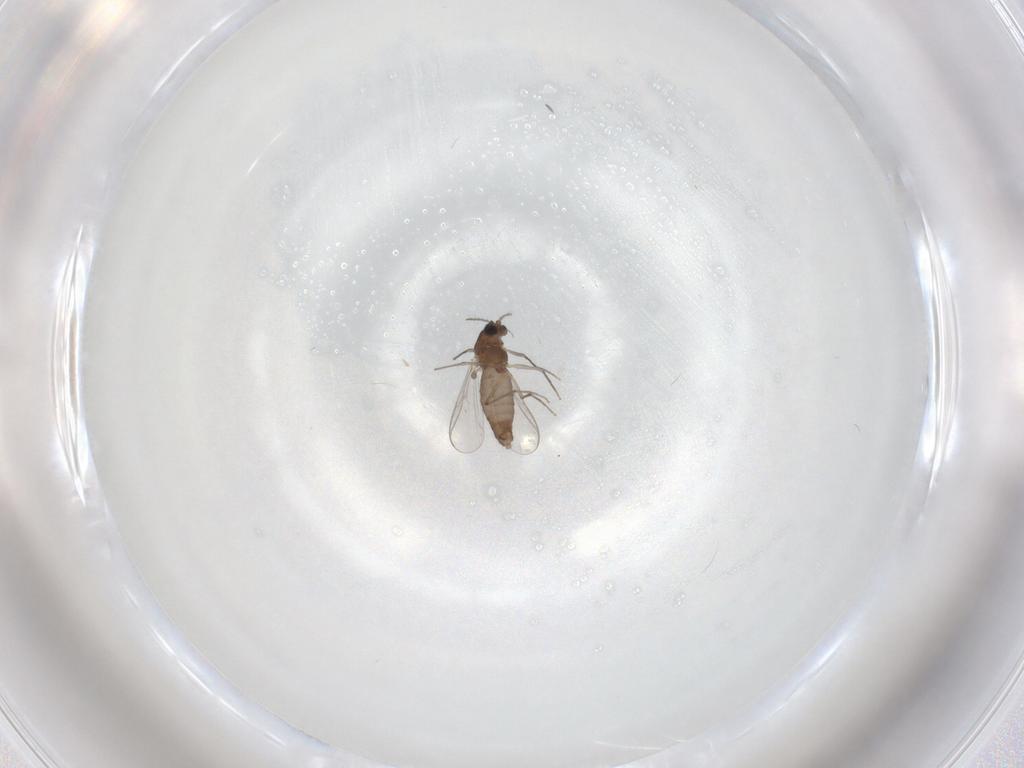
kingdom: Animalia
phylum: Arthropoda
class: Insecta
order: Diptera
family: Chironomidae
